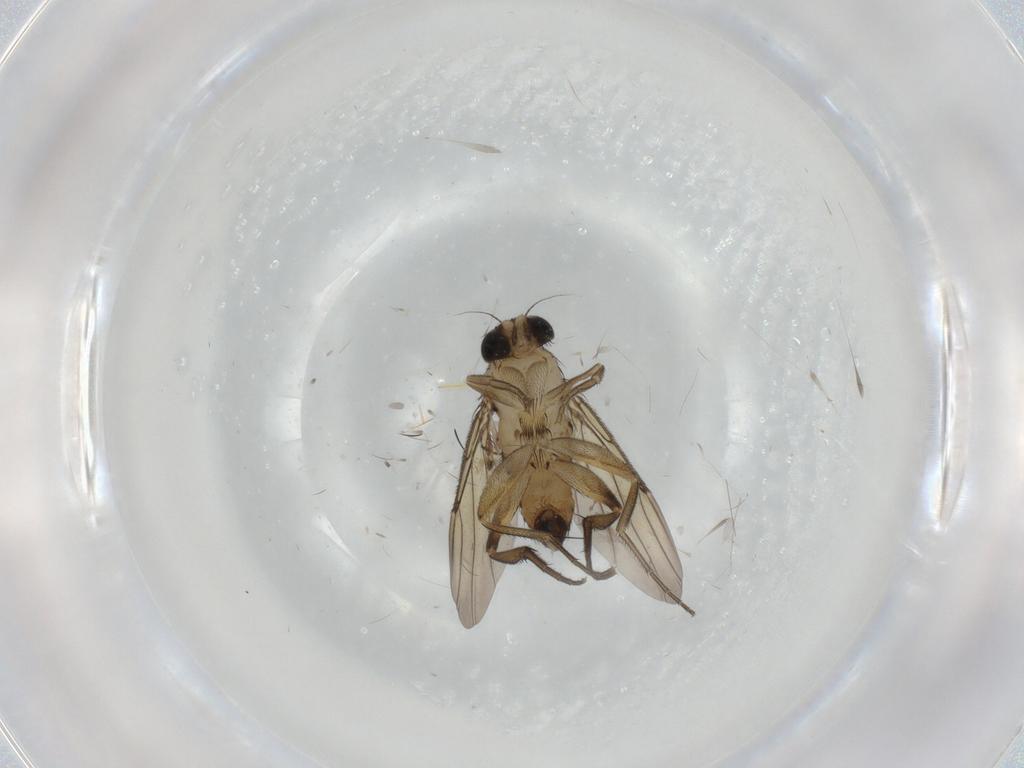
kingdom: Animalia
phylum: Arthropoda
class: Insecta
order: Diptera
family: Phoridae
